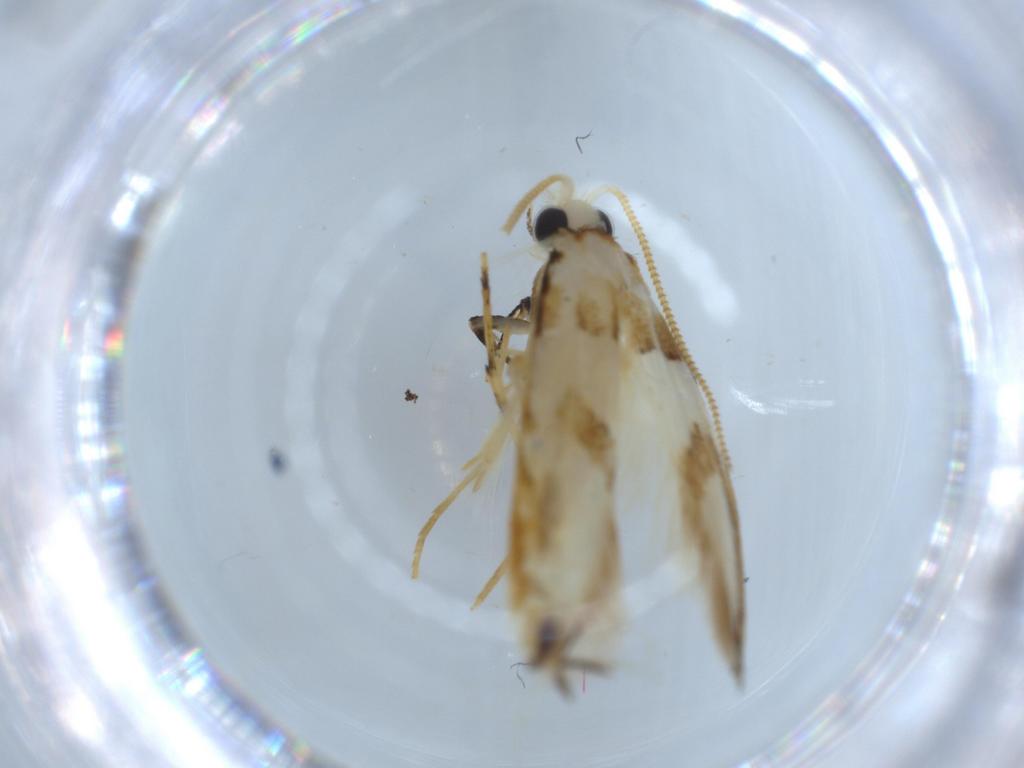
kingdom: Animalia
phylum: Arthropoda
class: Insecta
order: Lepidoptera
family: Tineidae
